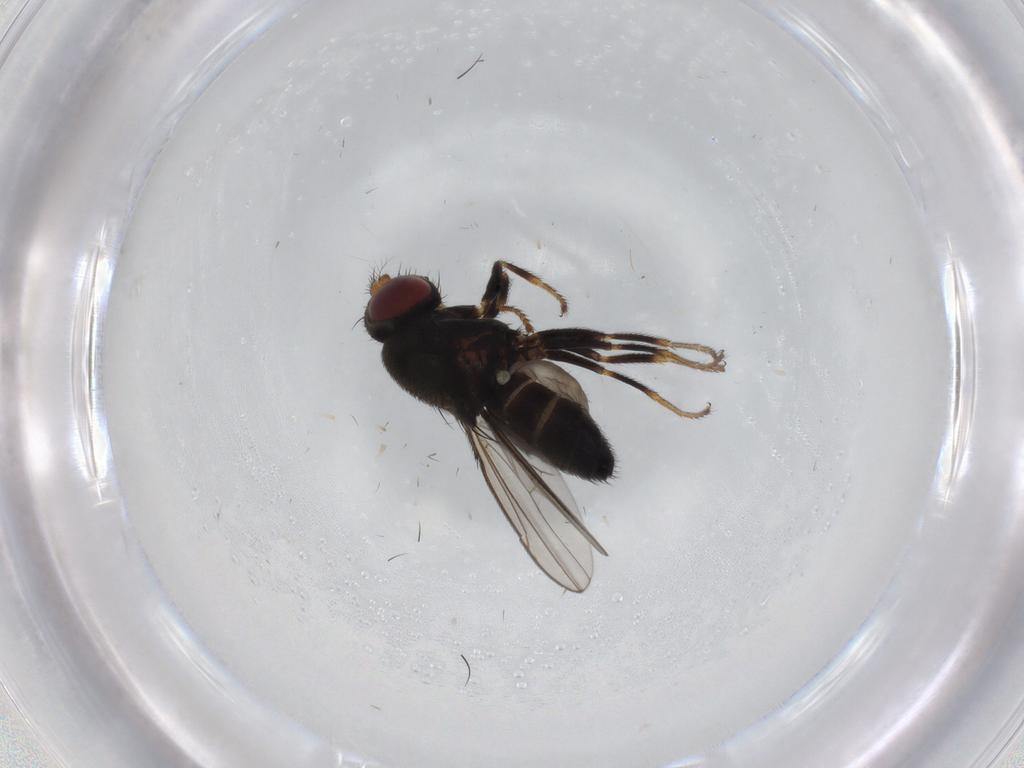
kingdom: Animalia
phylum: Arthropoda
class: Insecta
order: Diptera
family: Ephydridae
